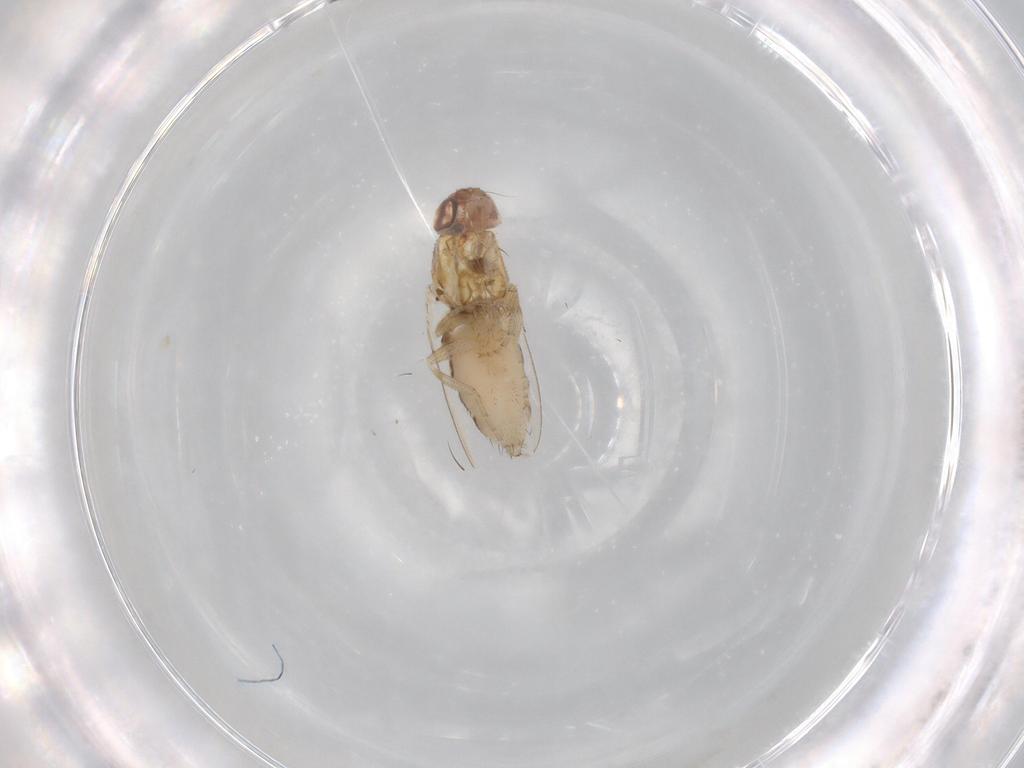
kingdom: Animalia
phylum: Arthropoda
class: Insecta
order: Diptera
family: Milichiidae
